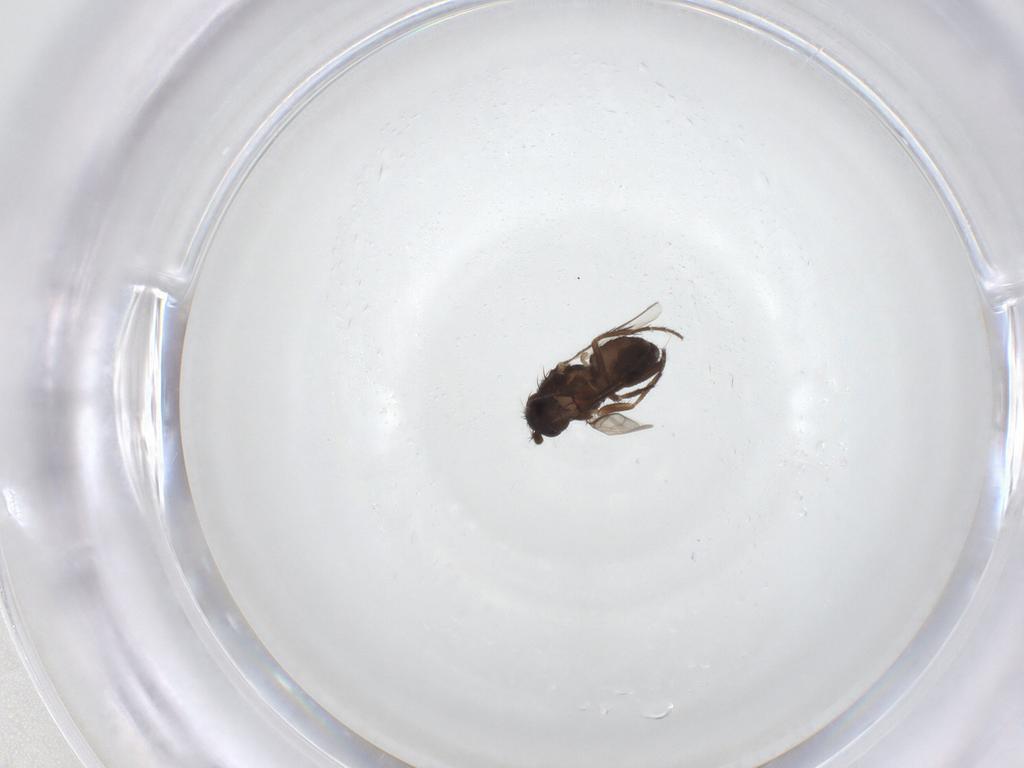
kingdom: Animalia
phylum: Arthropoda
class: Insecta
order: Diptera
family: Sphaeroceridae
